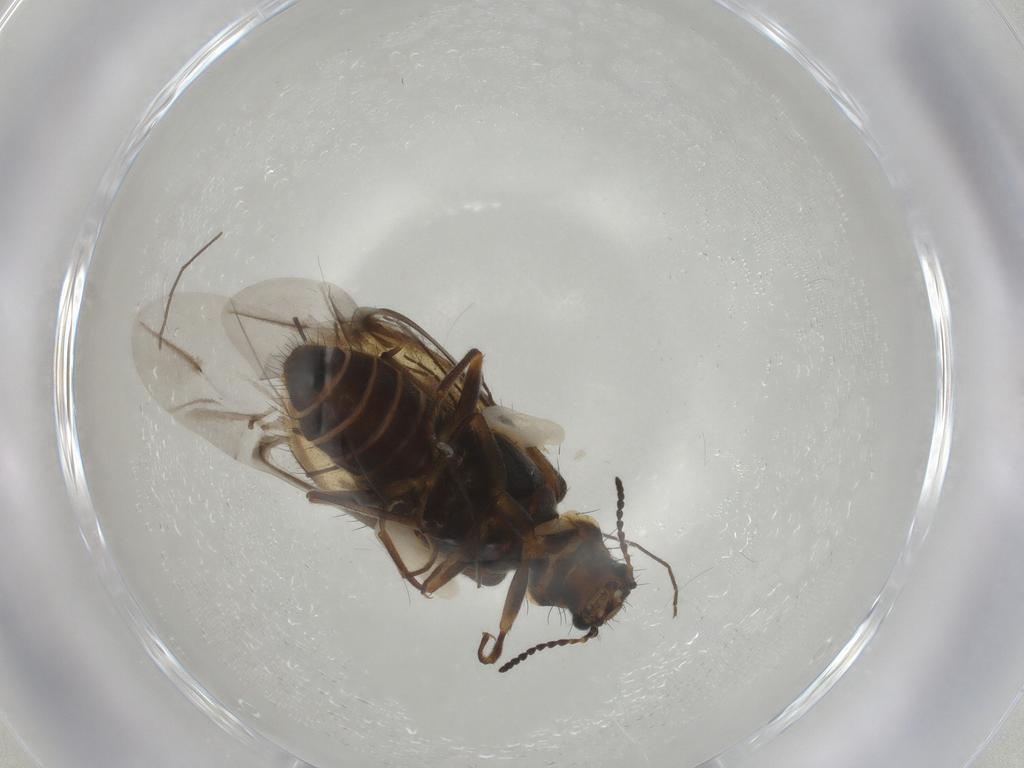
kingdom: Animalia
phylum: Arthropoda
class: Insecta
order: Coleoptera
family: Melyridae
